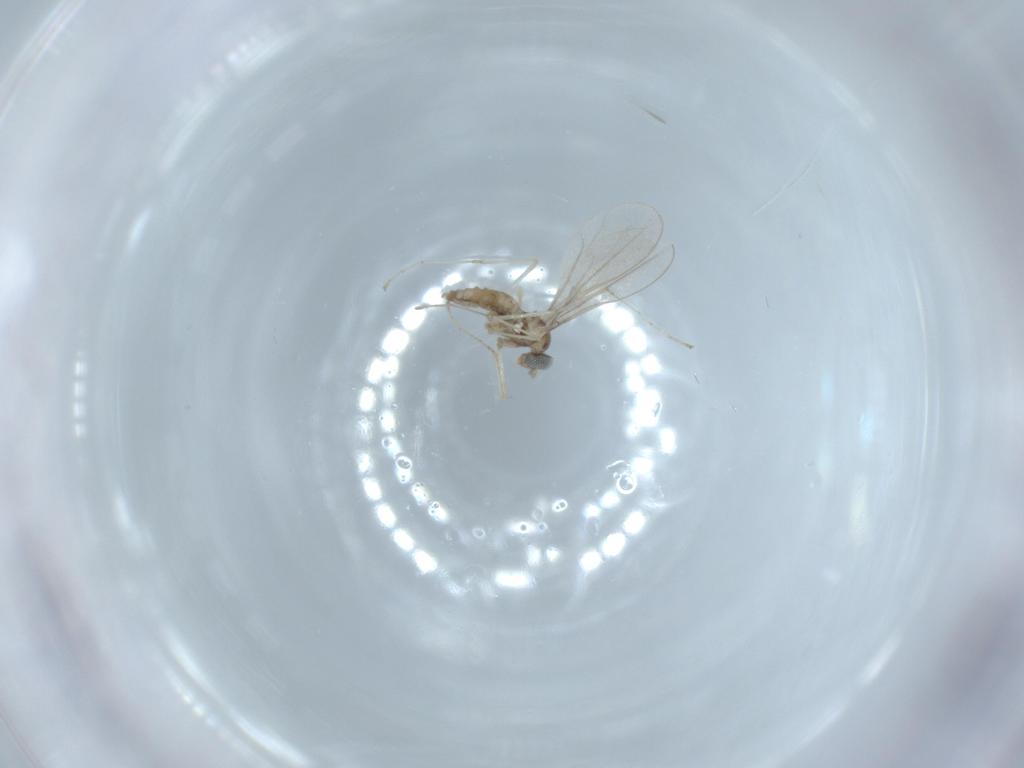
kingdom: Animalia
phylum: Arthropoda
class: Insecta
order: Diptera
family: Cecidomyiidae
